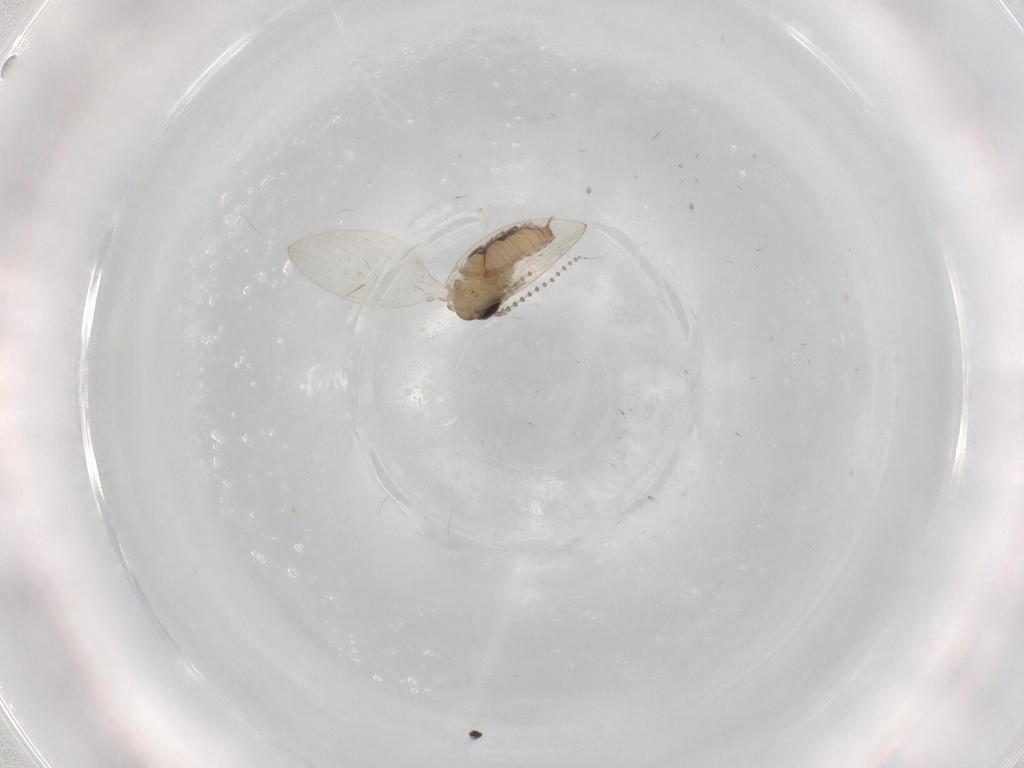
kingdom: Animalia
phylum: Arthropoda
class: Insecta
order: Diptera
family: Psychodidae
